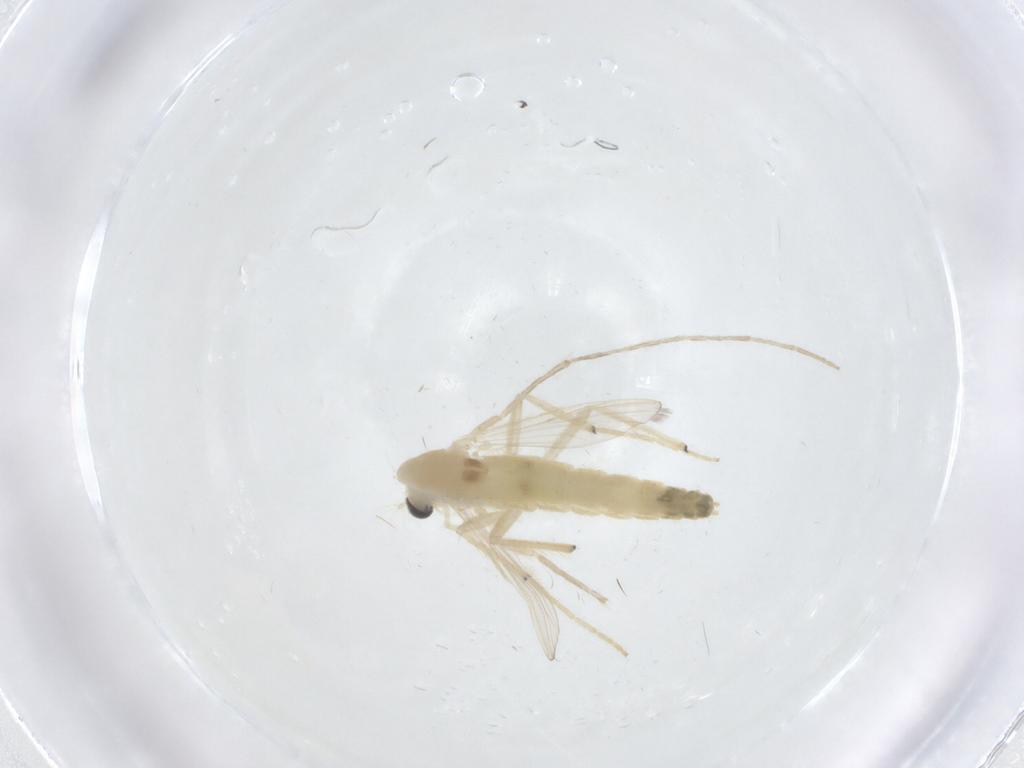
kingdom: Animalia
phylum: Arthropoda
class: Insecta
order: Diptera
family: Chironomidae
